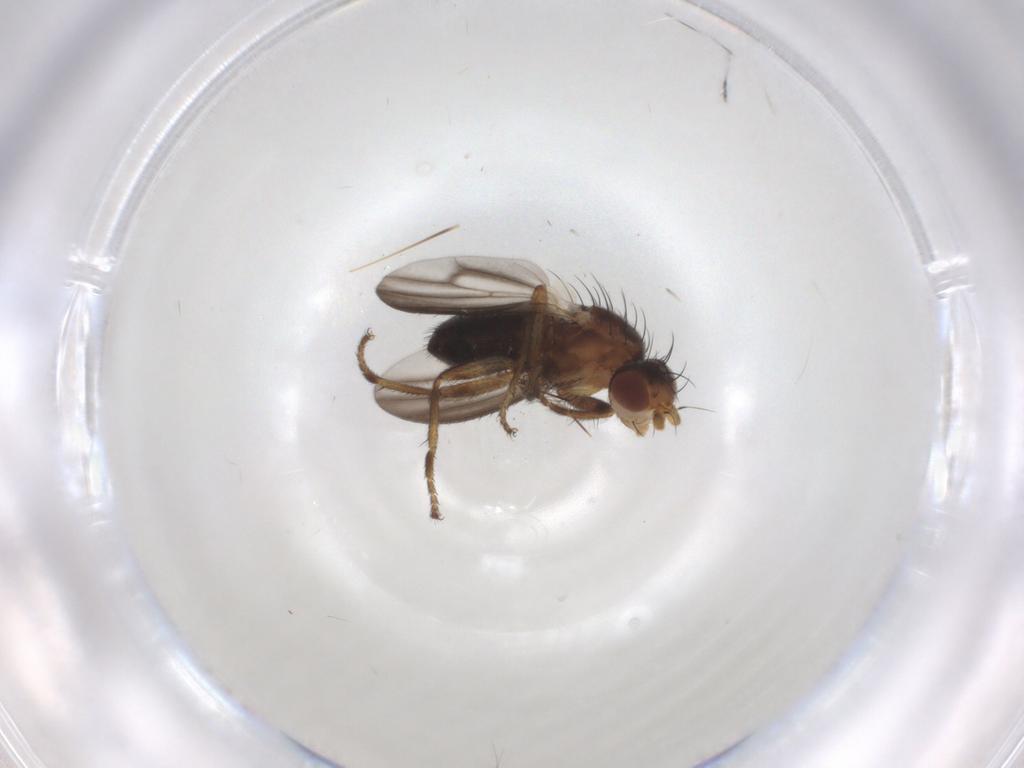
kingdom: Animalia
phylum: Arthropoda
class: Insecta
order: Diptera
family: Heleomyzidae
